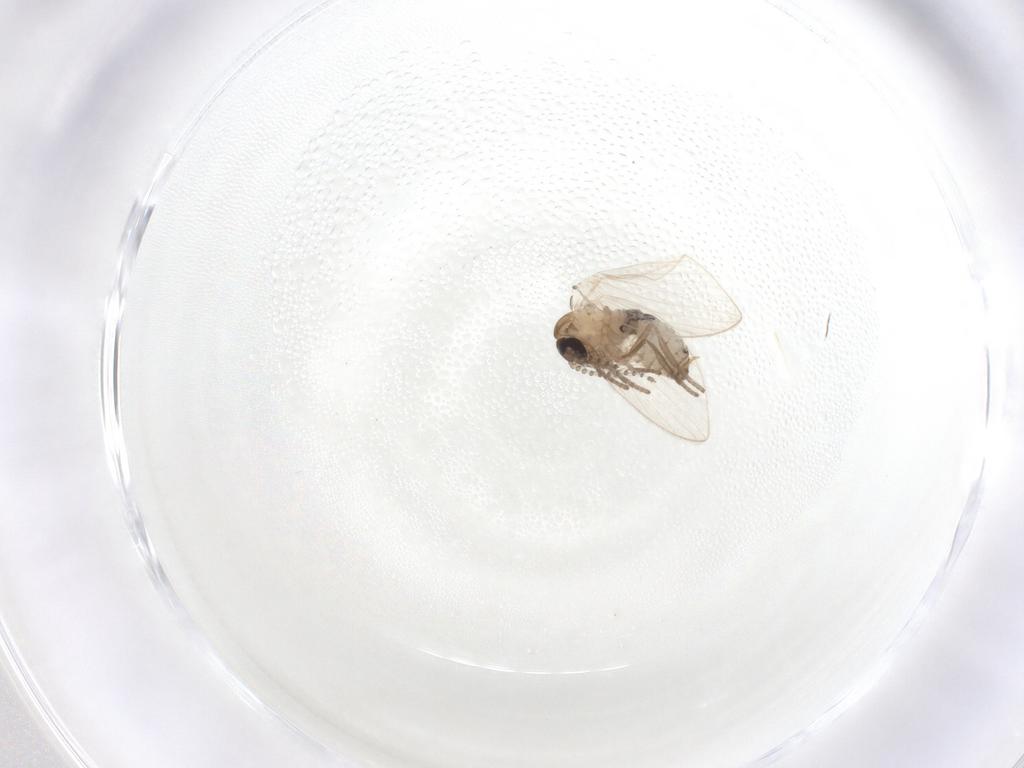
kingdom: Animalia
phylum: Arthropoda
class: Insecta
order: Diptera
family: Psychodidae
